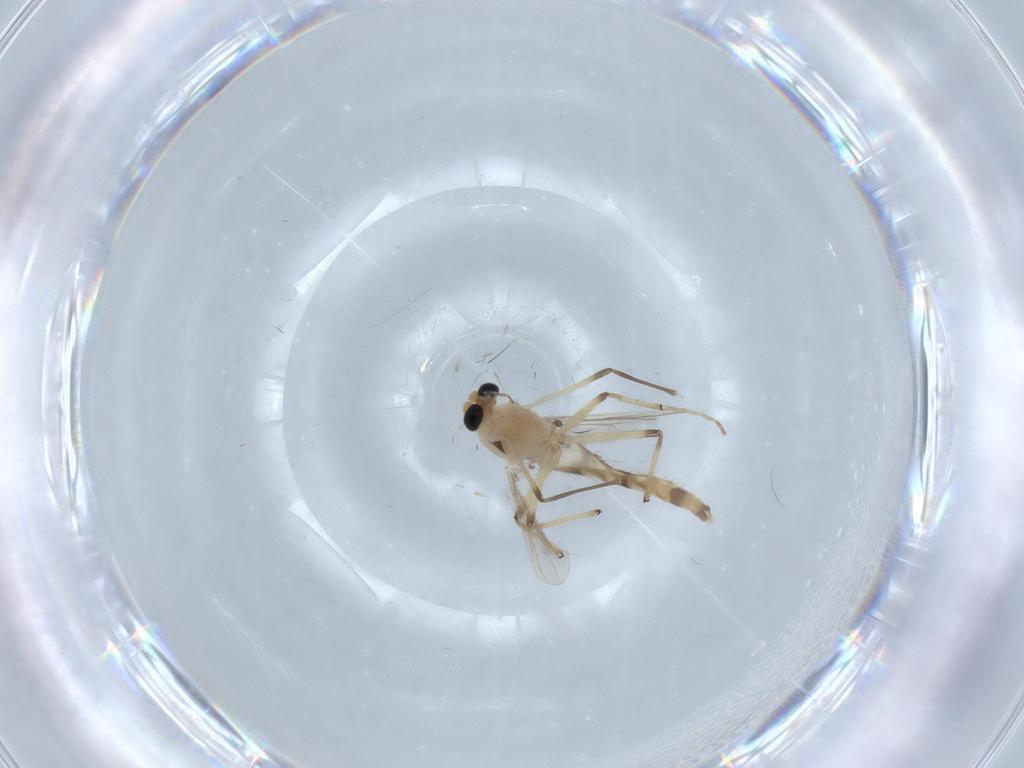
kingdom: Animalia
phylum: Arthropoda
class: Insecta
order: Diptera
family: Chironomidae
